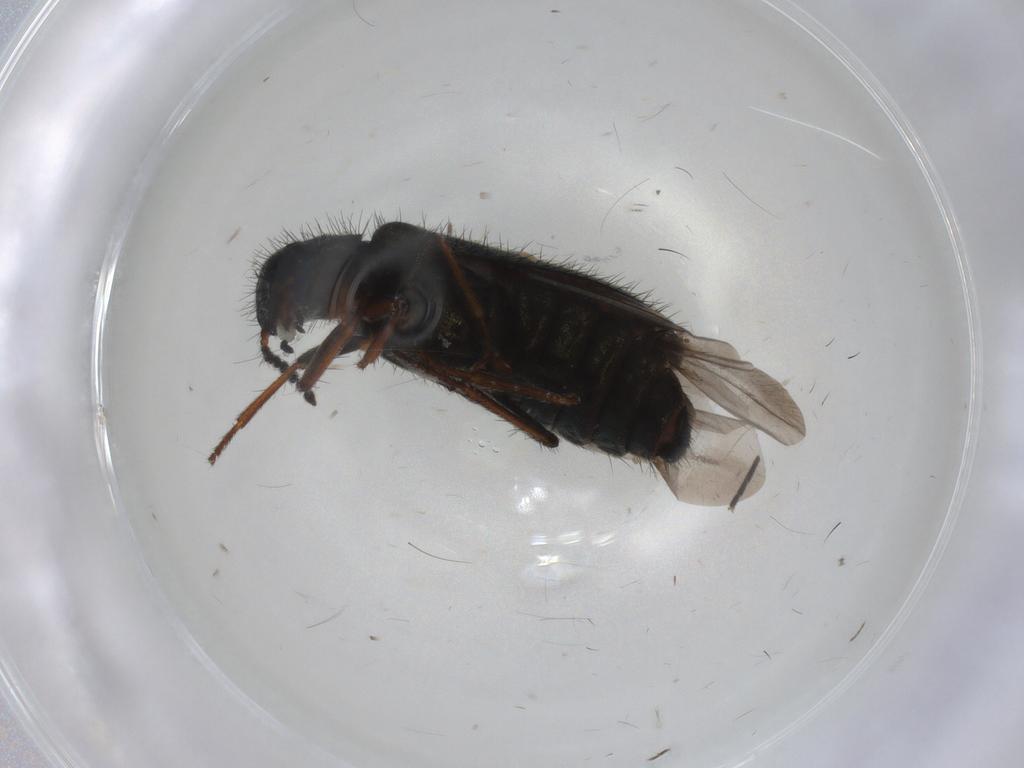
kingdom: Animalia
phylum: Arthropoda
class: Insecta
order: Coleoptera
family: Dasytidae
